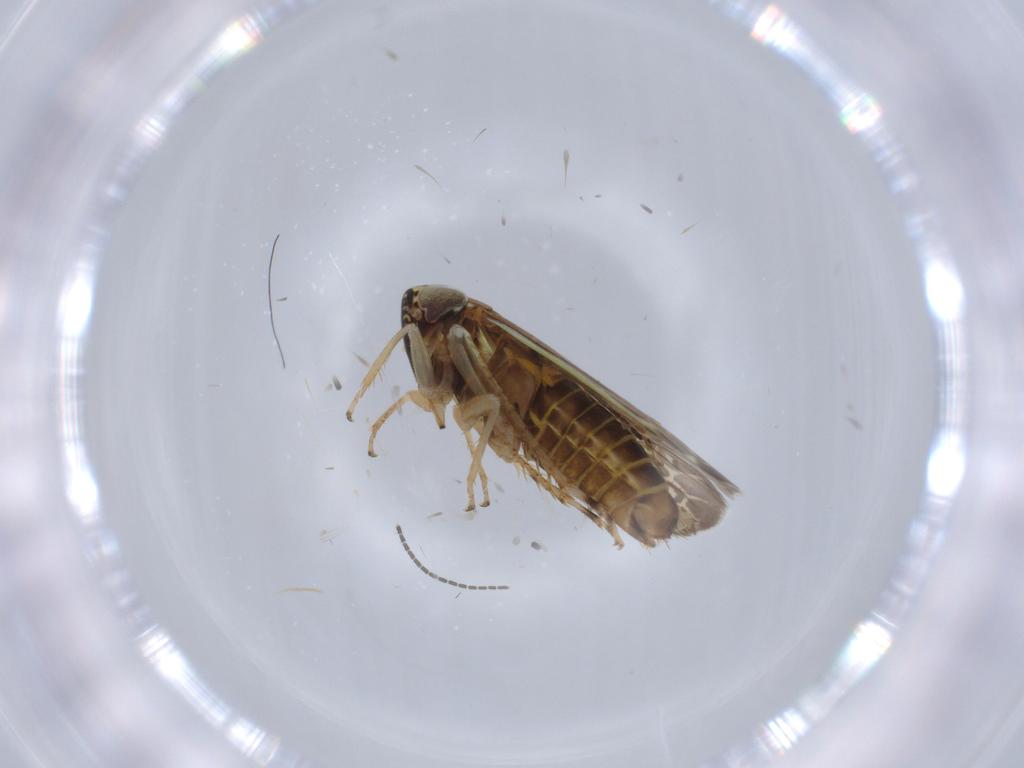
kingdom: Animalia
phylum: Arthropoda
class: Insecta
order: Hemiptera
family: Cicadellidae
